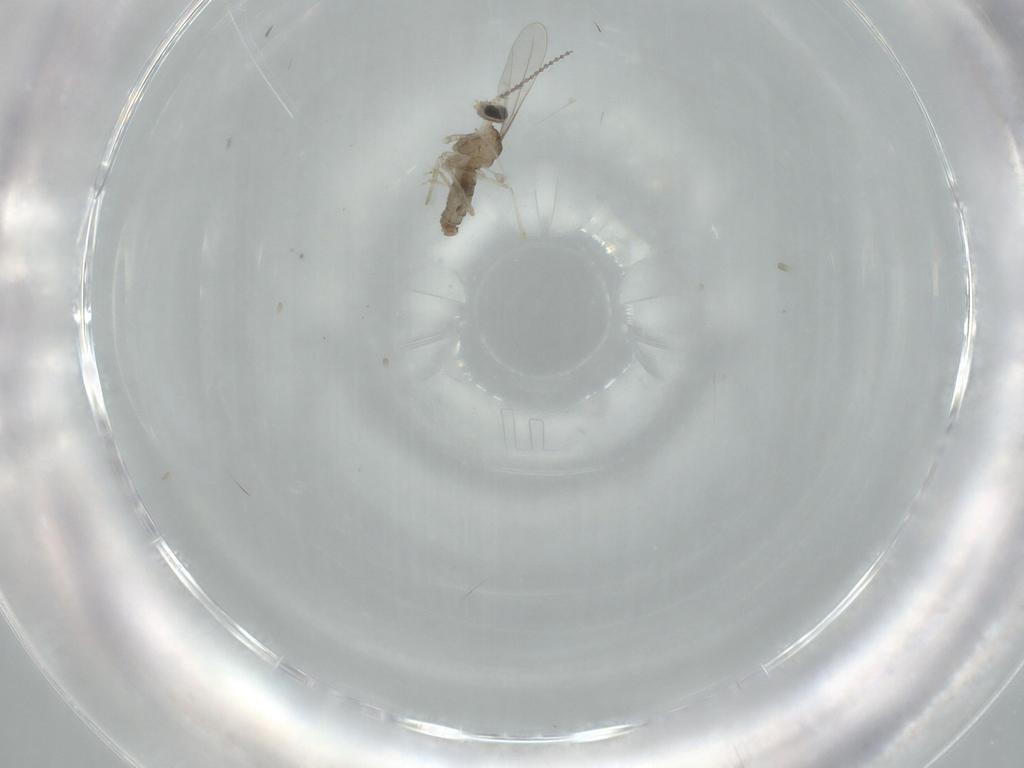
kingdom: Animalia
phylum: Arthropoda
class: Insecta
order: Diptera
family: Cecidomyiidae
